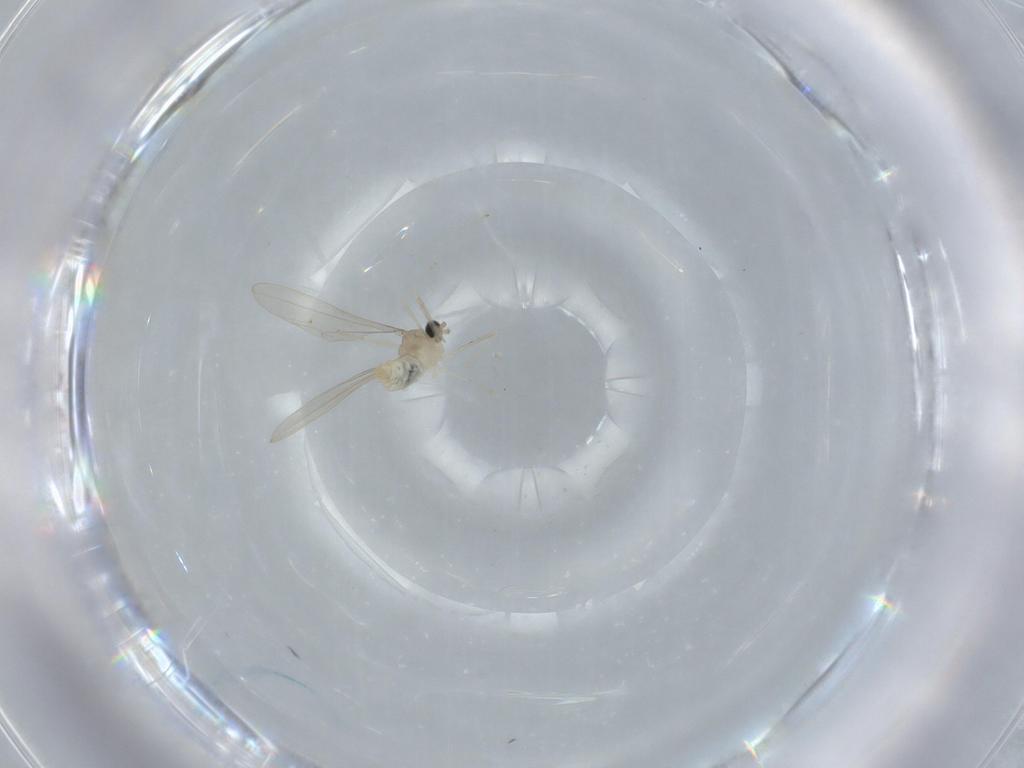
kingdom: Animalia
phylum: Arthropoda
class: Insecta
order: Diptera
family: Cecidomyiidae
